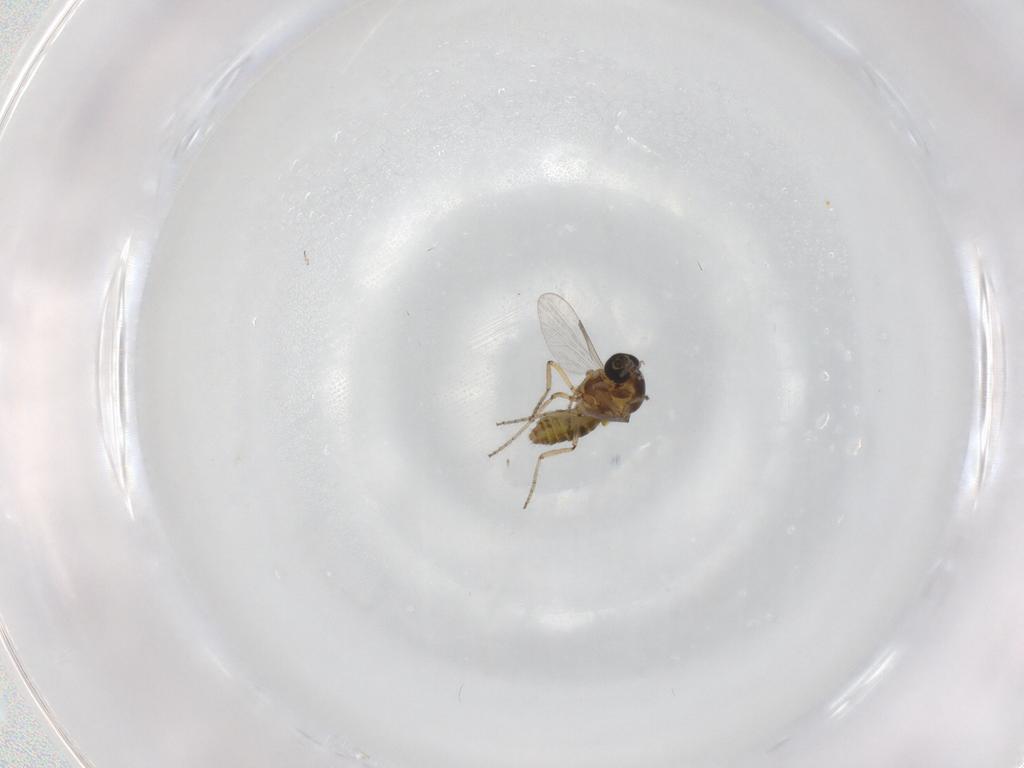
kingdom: Animalia
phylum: Arthropoda
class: Insecta
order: Diptera
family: Ceratopogonidae
